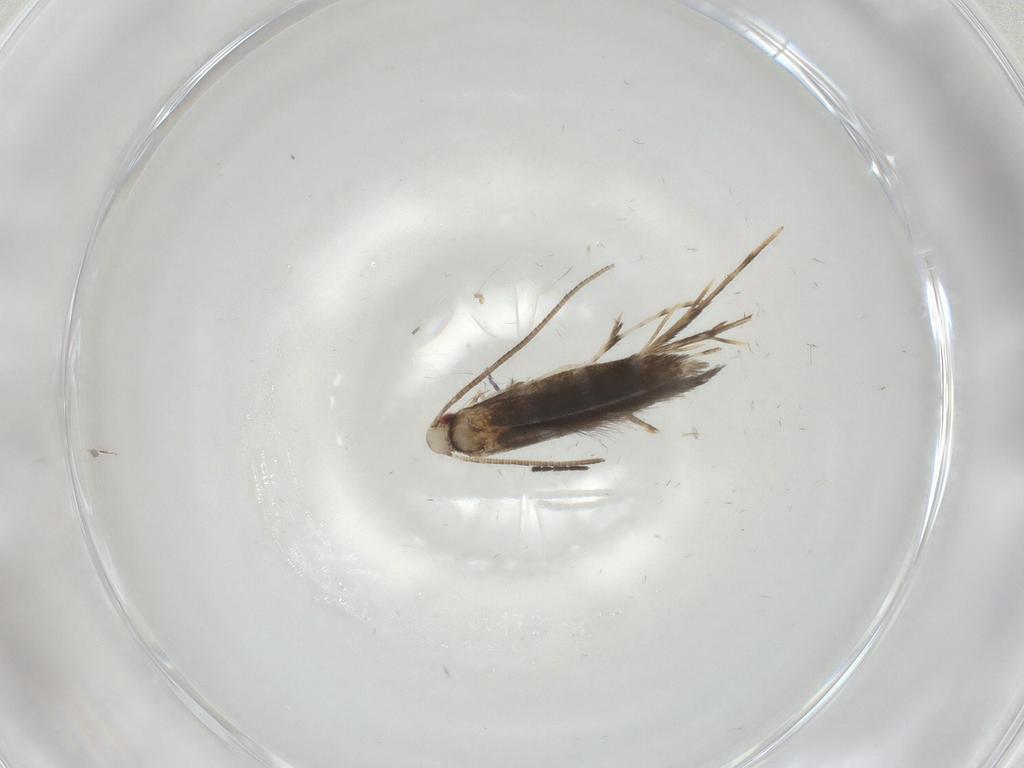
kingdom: Animalia
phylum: Arthropoda
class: Insecta
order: Lepidoptera
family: Gracillariidae
